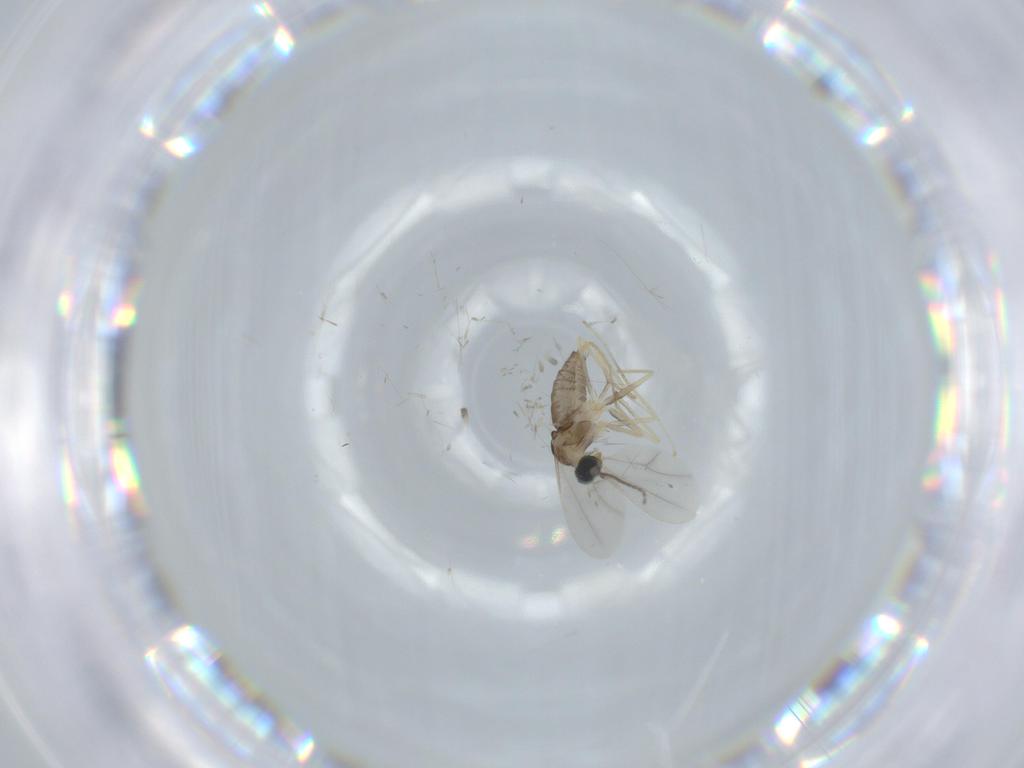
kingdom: Animalia
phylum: Arthropoda
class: Insecta
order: Diptera
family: Cecidomyiidae
